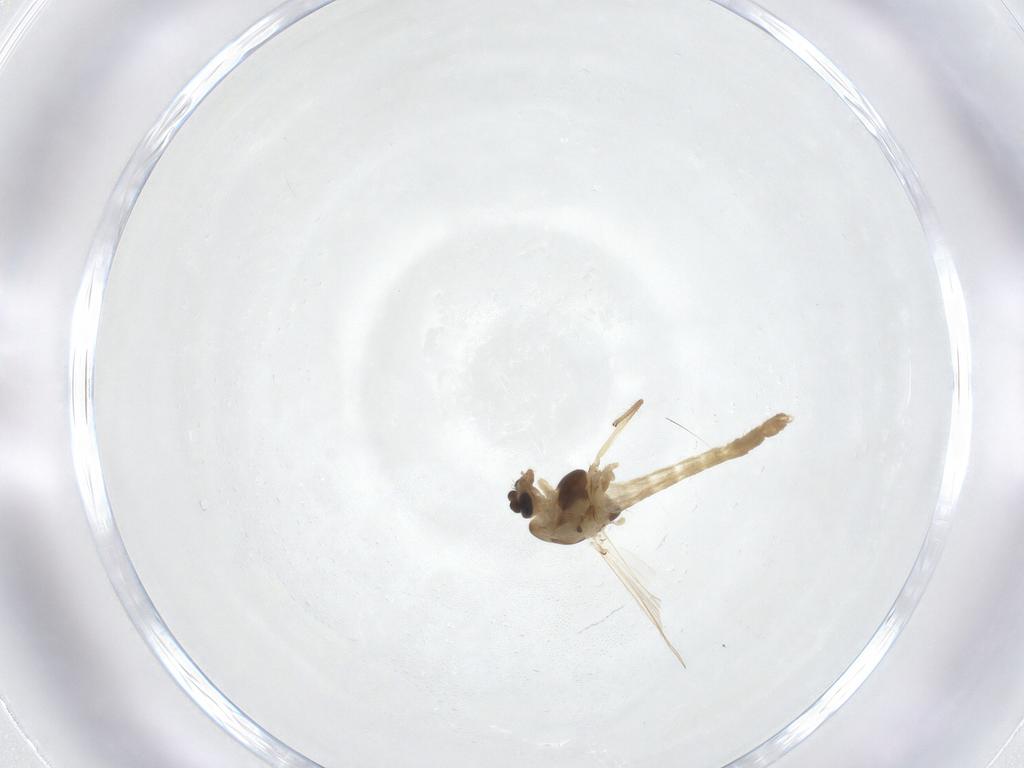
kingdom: Animalia
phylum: Arthropoda
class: Insecta
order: Diptera
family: Chironomidae
